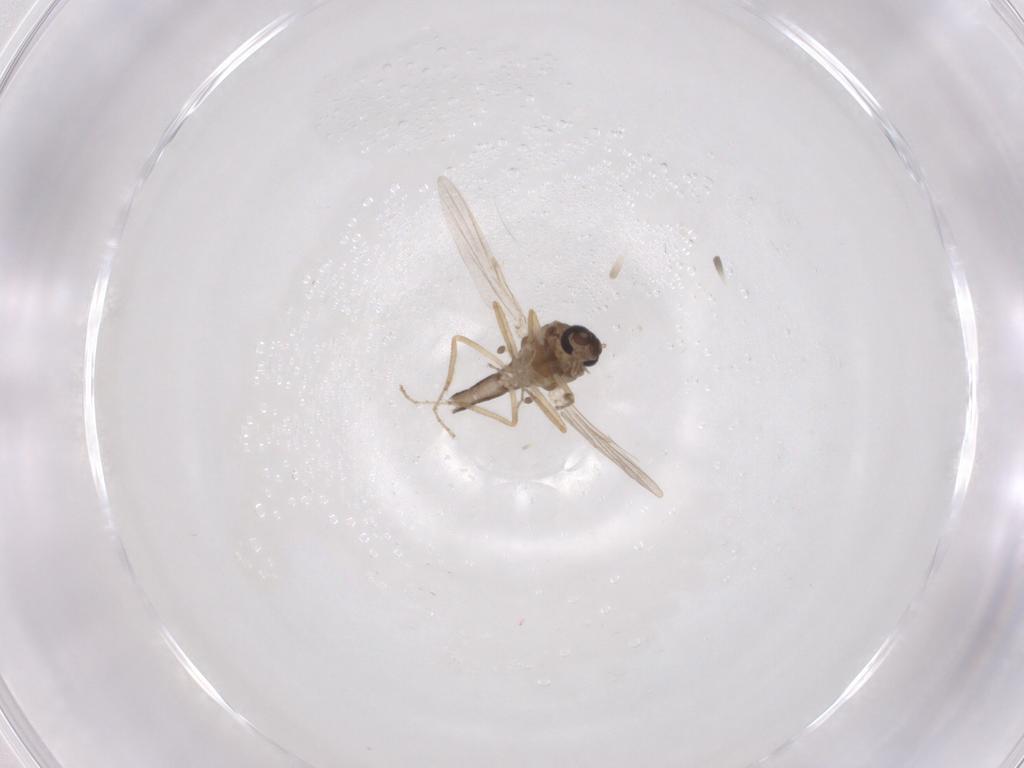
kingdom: Animalia
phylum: Arthropoda
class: Insecta
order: Diptera
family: Ceratopogonidae
